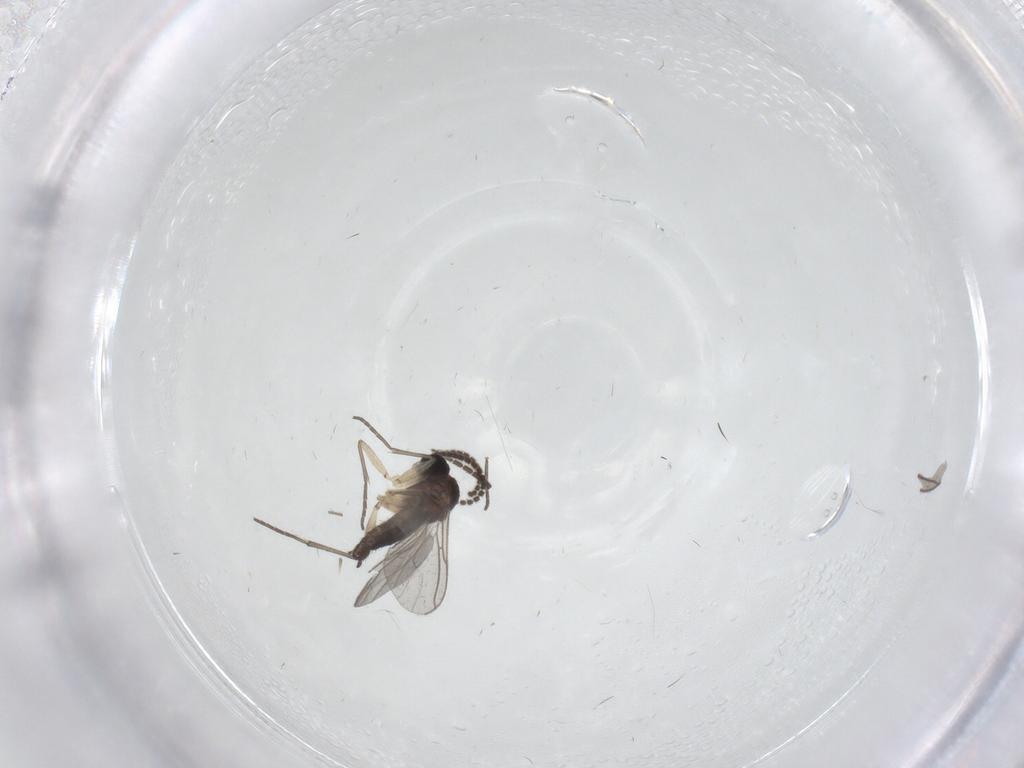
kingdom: Animalia
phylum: Arthropoda
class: Insecta
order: Diptera
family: Sciaridae
